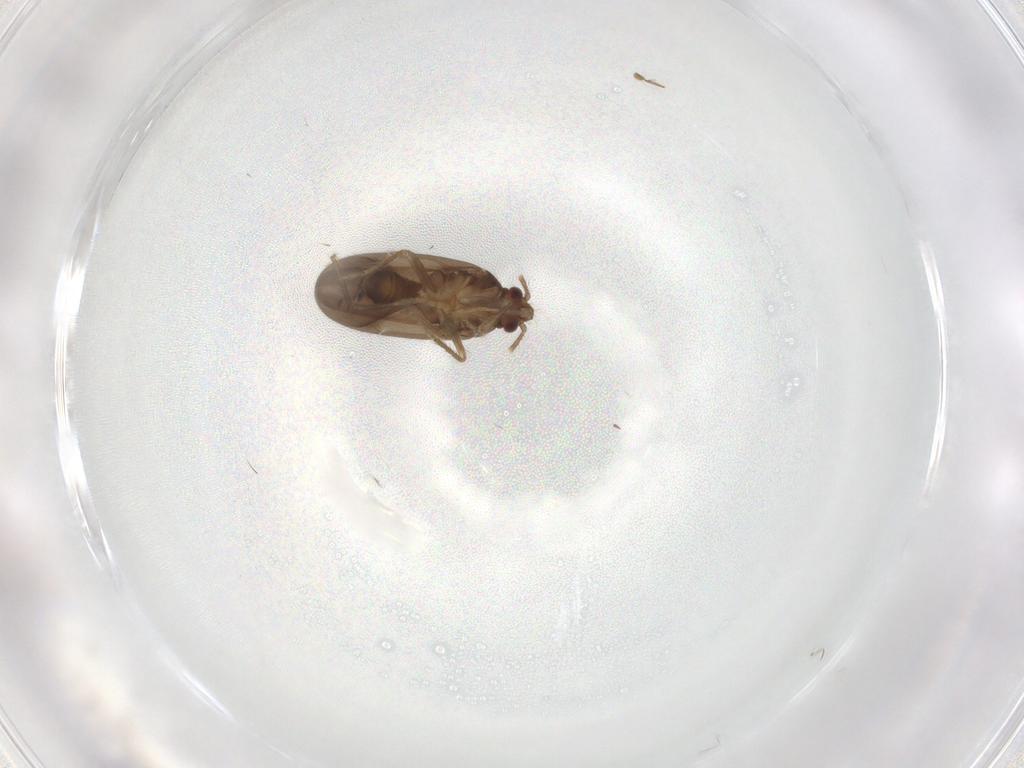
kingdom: Animalia
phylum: Arthropoda
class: Insecta
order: Hemiptera
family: Ceratocombidae
